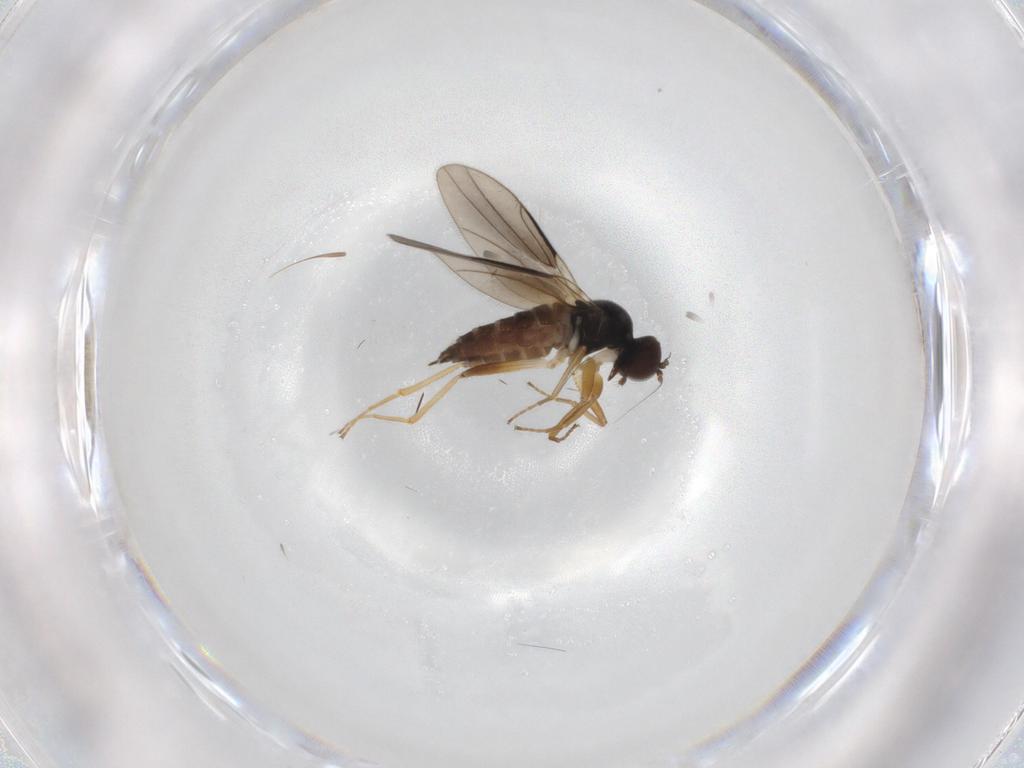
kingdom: Animalia
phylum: Arthropoda
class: Insecta
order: Diptera
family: Hybotidae
